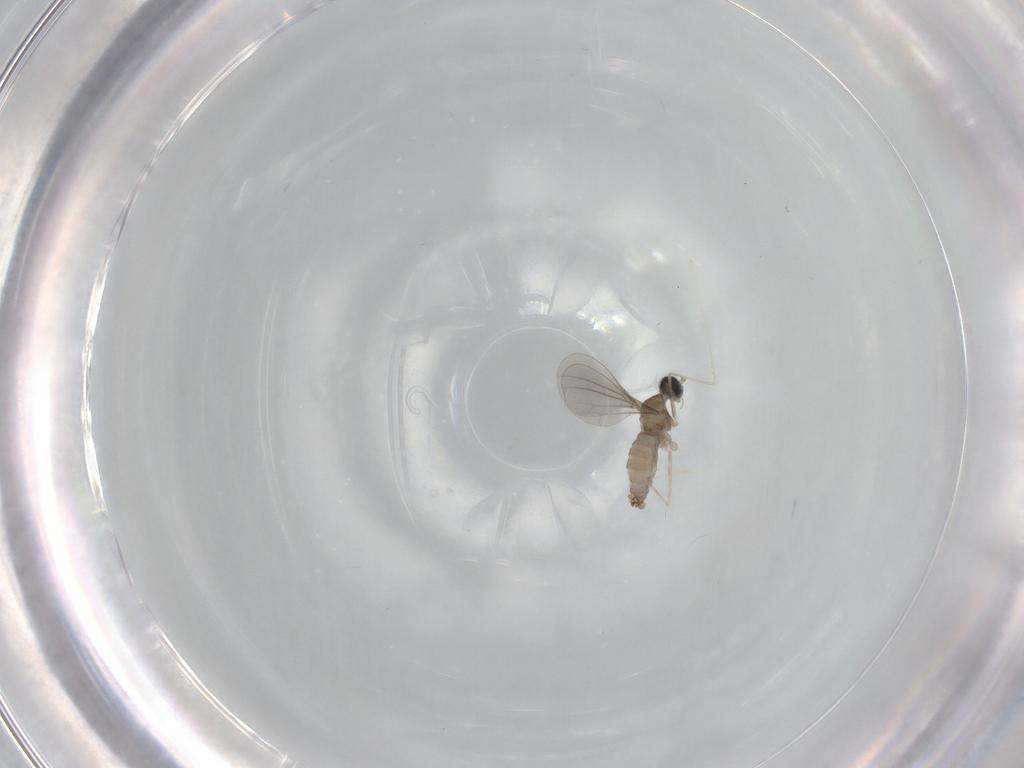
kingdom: Animalia
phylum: Arthropoda
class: Insecta
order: Diptera
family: Cecidomyiidae
